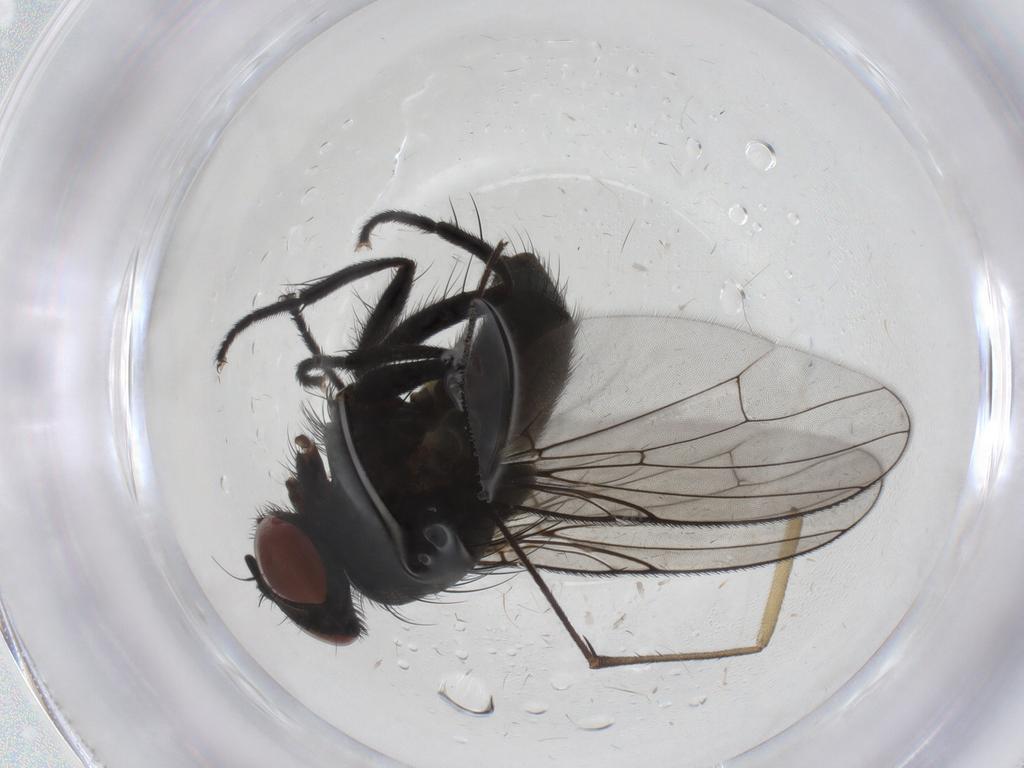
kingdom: Animalia
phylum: Arthropoda
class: Insecta
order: Diptera
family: Muscidae
